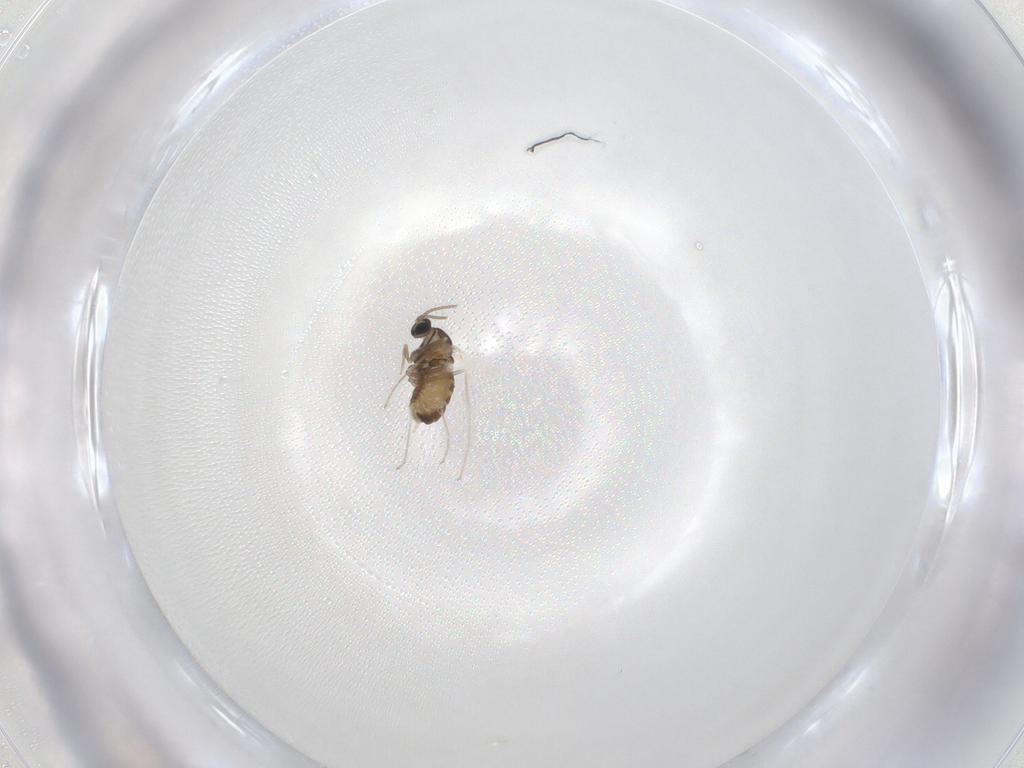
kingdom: Animalia
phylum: Arthropoda
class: Insecta
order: Diptera
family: Cecidomyiidae
